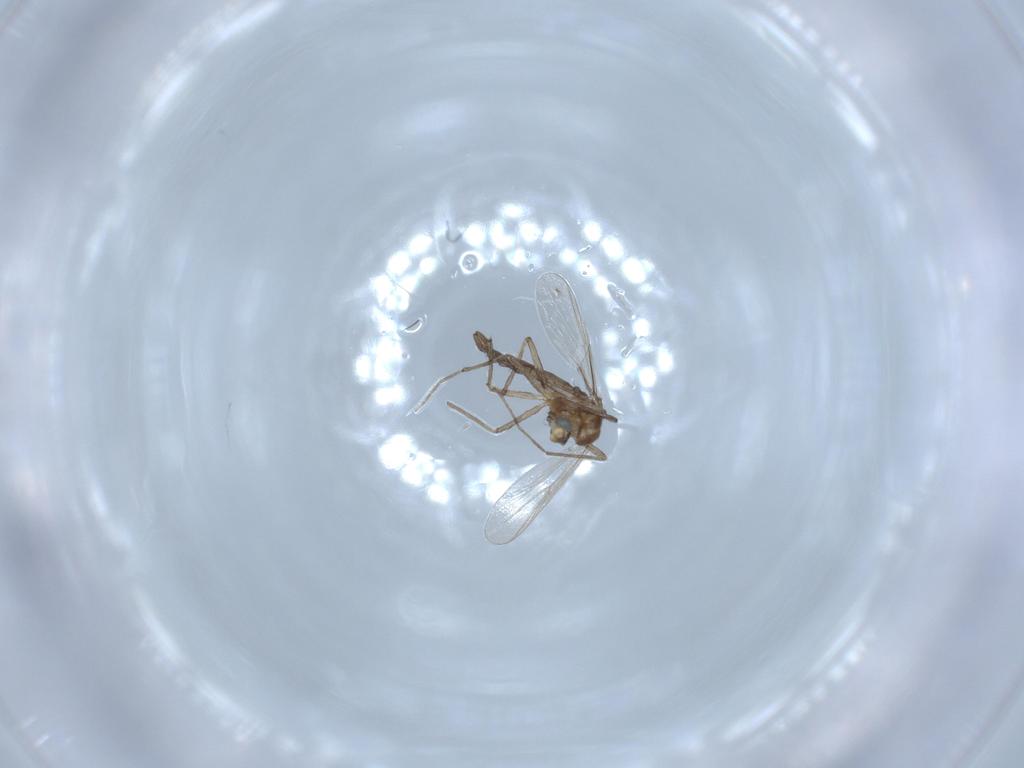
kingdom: Animalia
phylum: Arthropoda
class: Insecta
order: Diptera
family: Chironomidae
